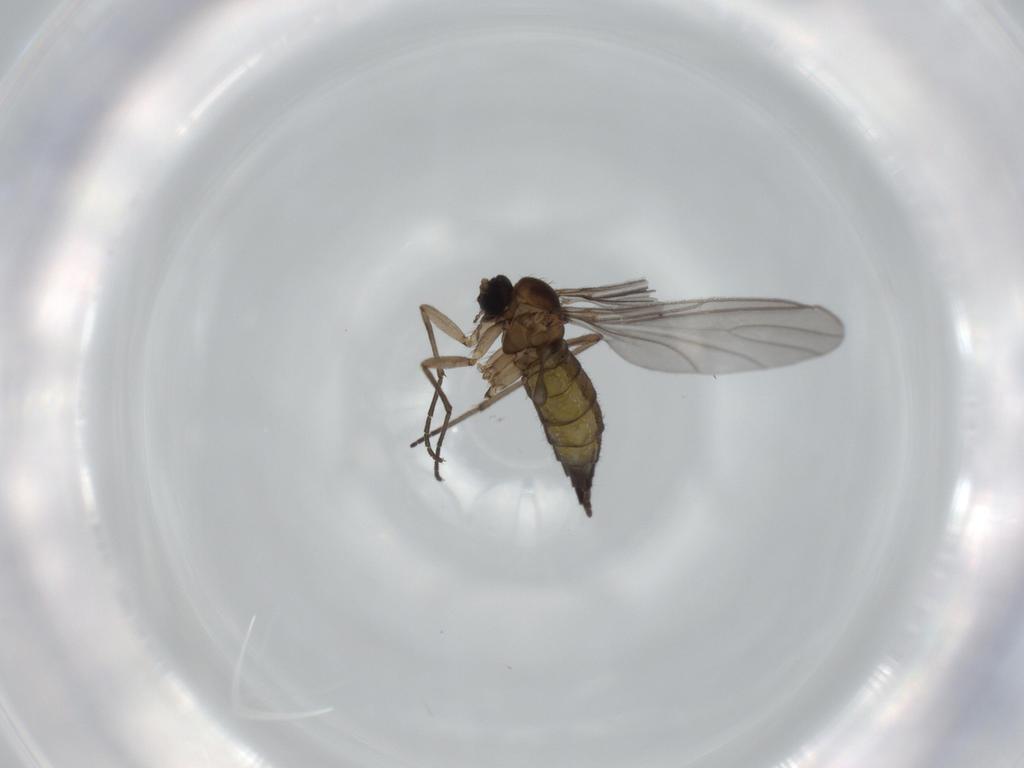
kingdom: Animalia
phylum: Arthropoda
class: Insecta
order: Diptera
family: Sciaridae
